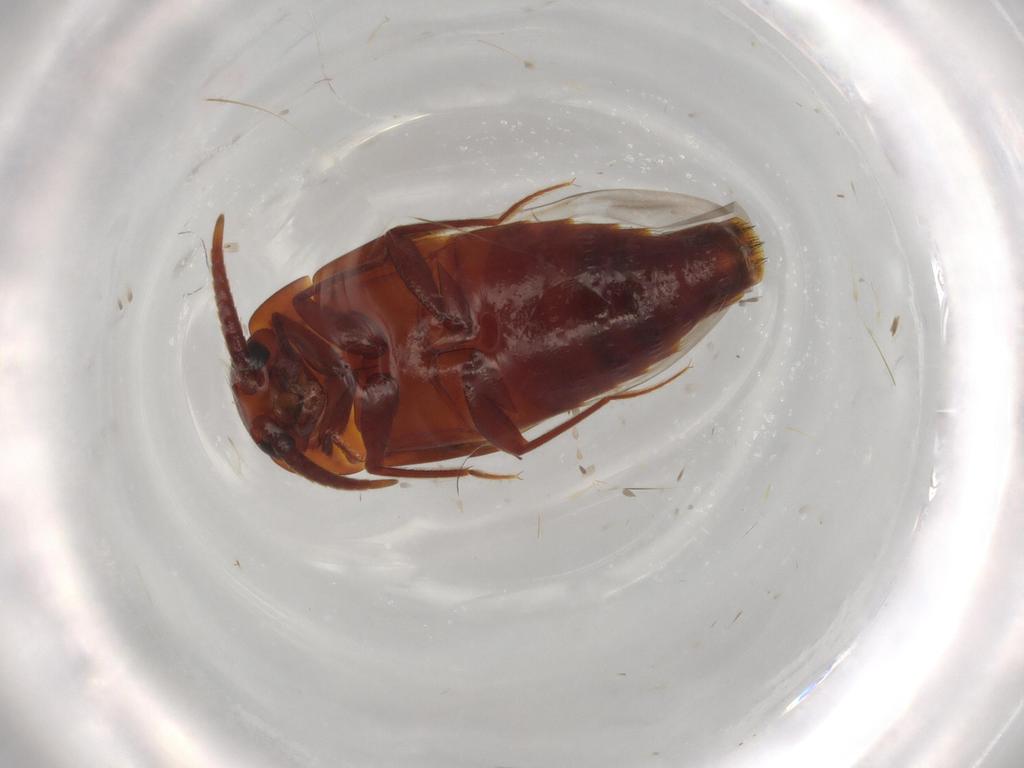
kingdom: Animalia
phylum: Arthropoda
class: Insecta
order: Coleoptera
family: Staphylinidae
